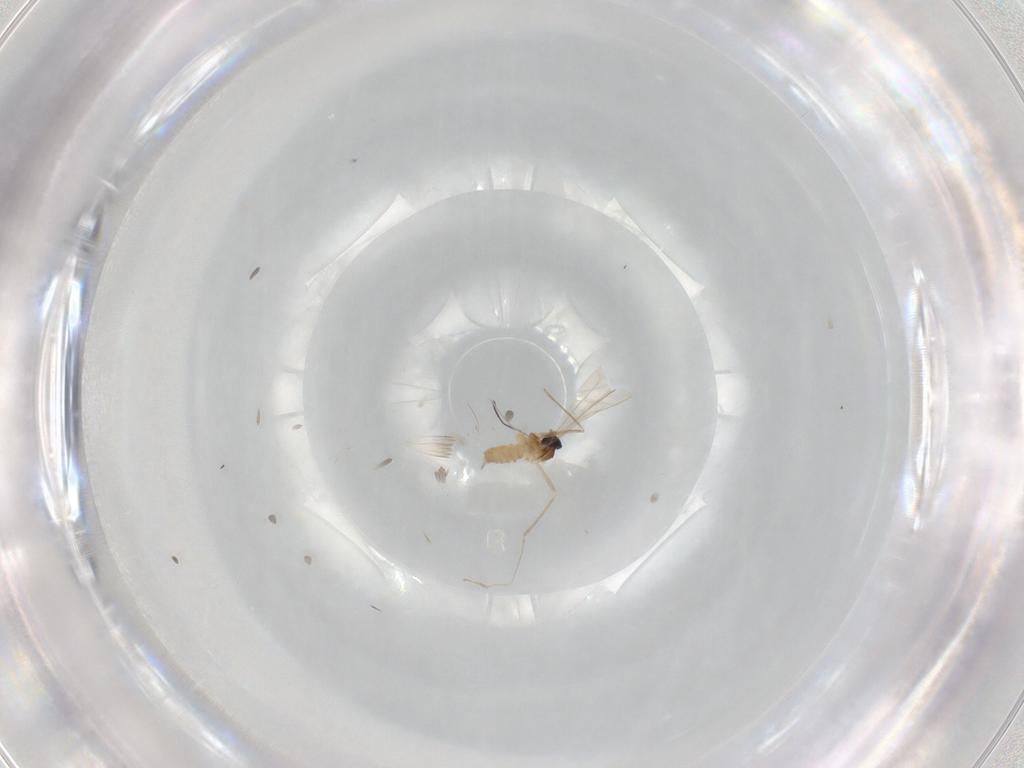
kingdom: Animalia
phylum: Arthropoda
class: Insecta
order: Diptera
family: Cecidomyiidae
